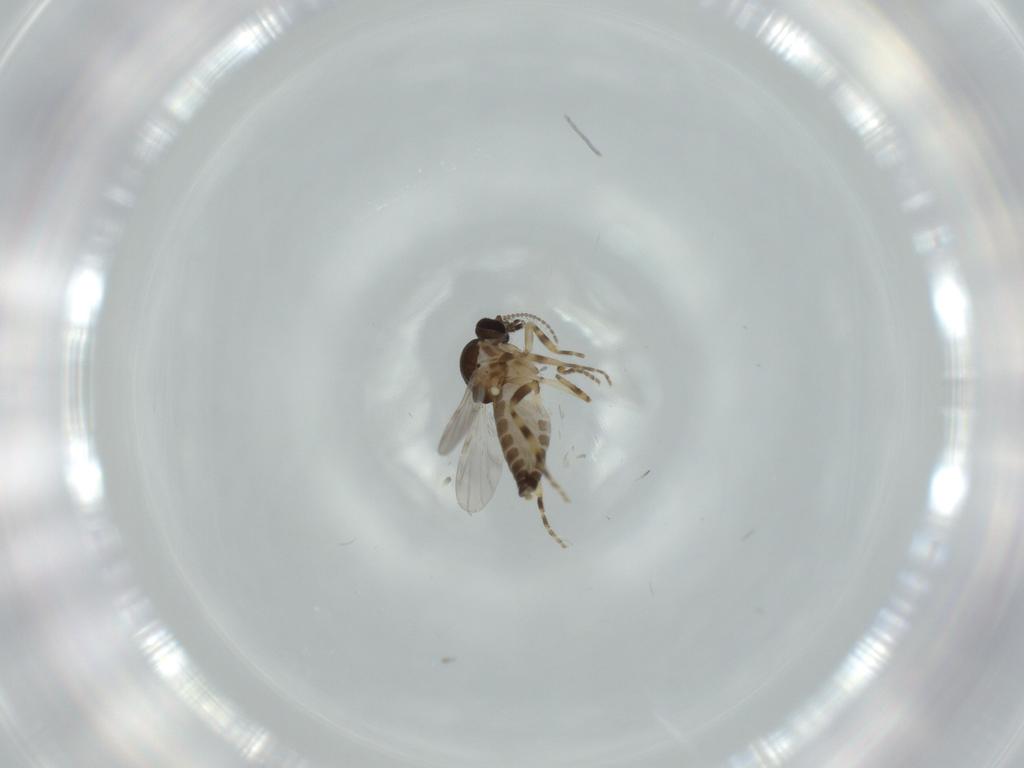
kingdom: Animalia
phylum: Arthropoda
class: Insecta
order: Diptera
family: Ceratopogonidae
